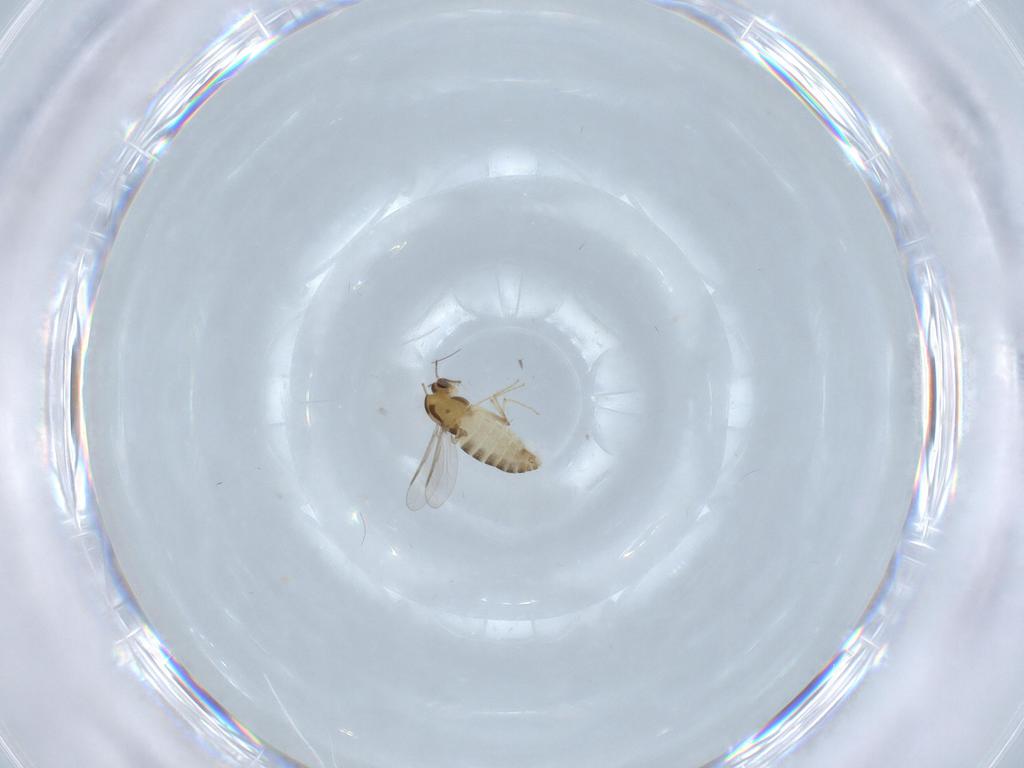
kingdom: Animalia
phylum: Arthropoda
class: Insecta
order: Diptera
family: Chironomidae
